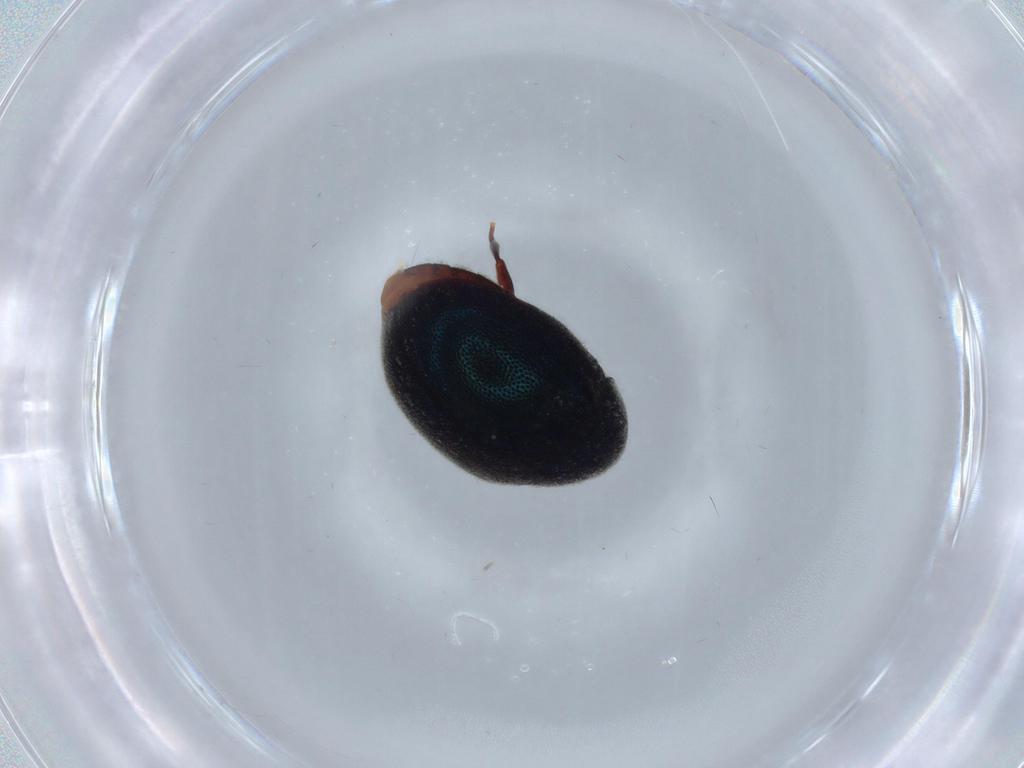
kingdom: Animalia
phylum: Arthropoda
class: Insecta
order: Coleoptera
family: Ptinidae
